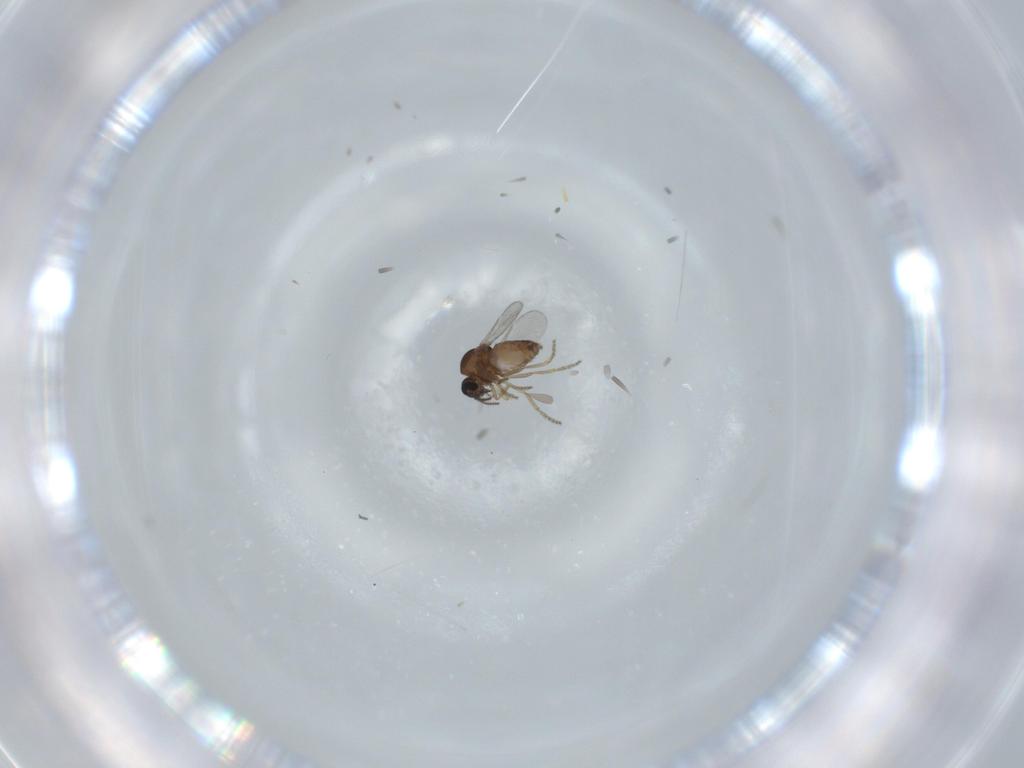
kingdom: Animalia
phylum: Arthropoda
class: Insecta
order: Diptera
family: Ceratopogonidae
